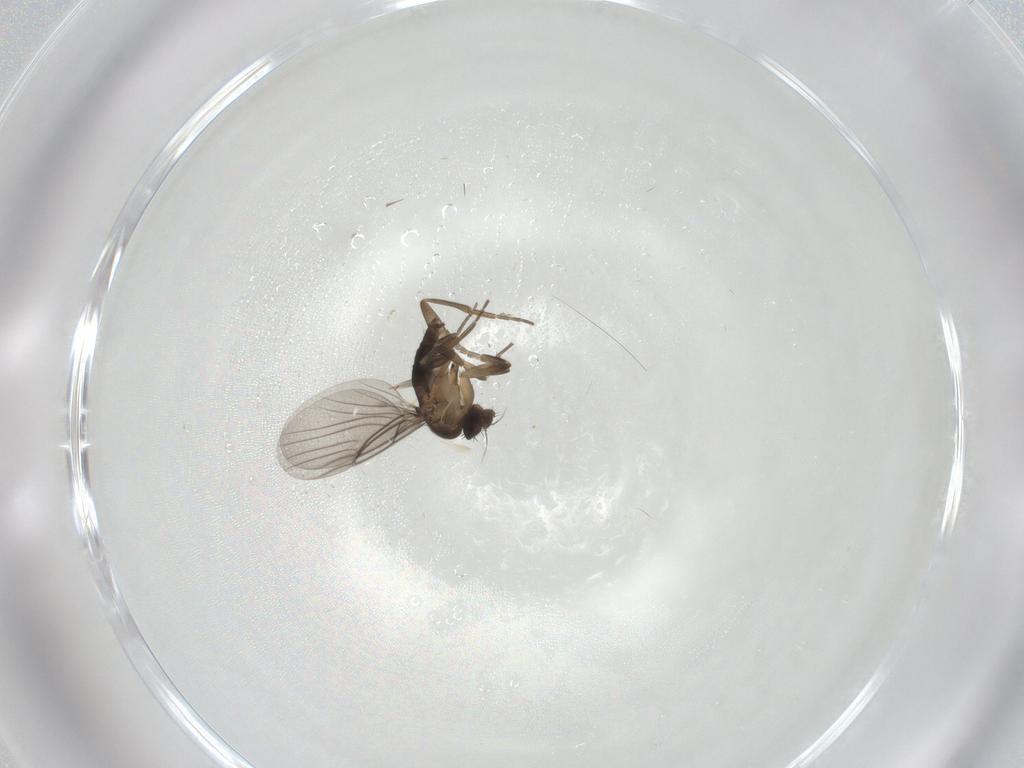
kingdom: Animalia
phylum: Arthropoda
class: Insecta
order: Diptera
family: Phoridae
